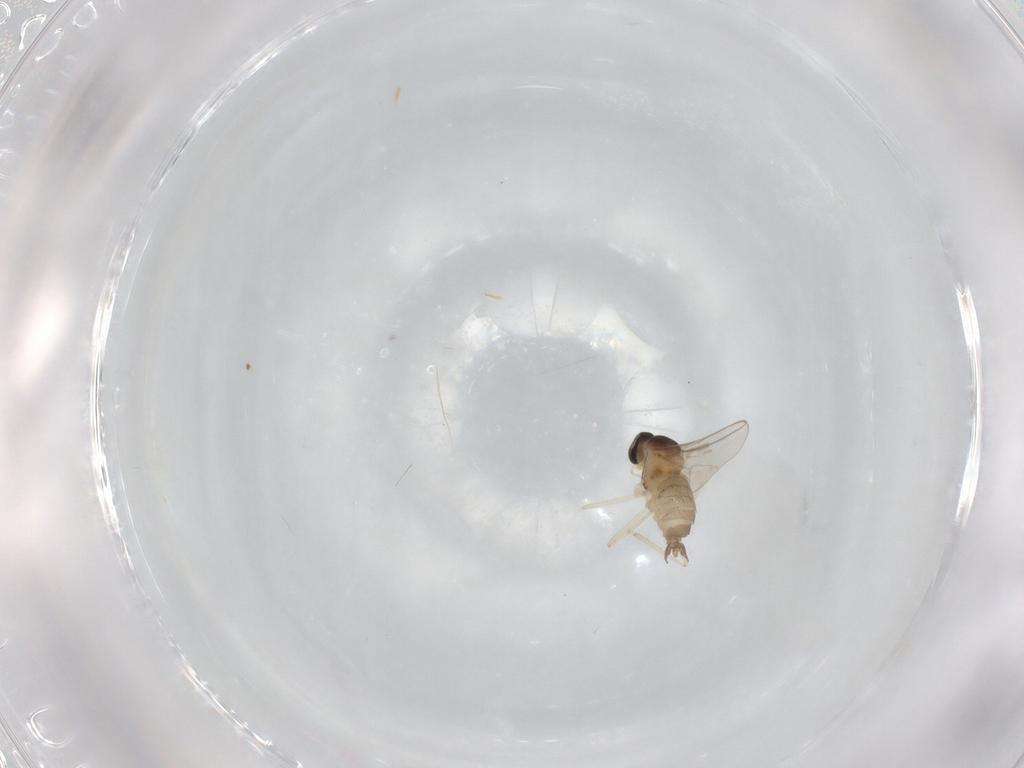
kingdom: Animalia
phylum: Arthropoda
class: Insecta
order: Diptera
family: Cecidomyiidae
